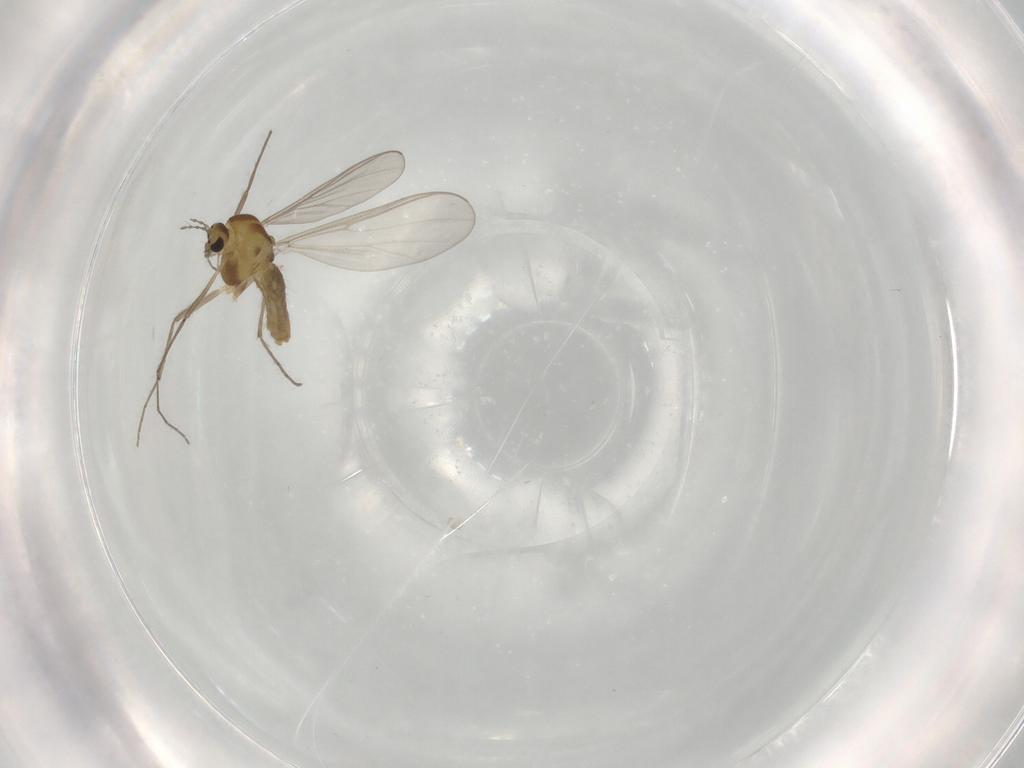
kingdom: Animalia
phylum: Arthropoda
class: Insecta
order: Diptera
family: Chironomidae
